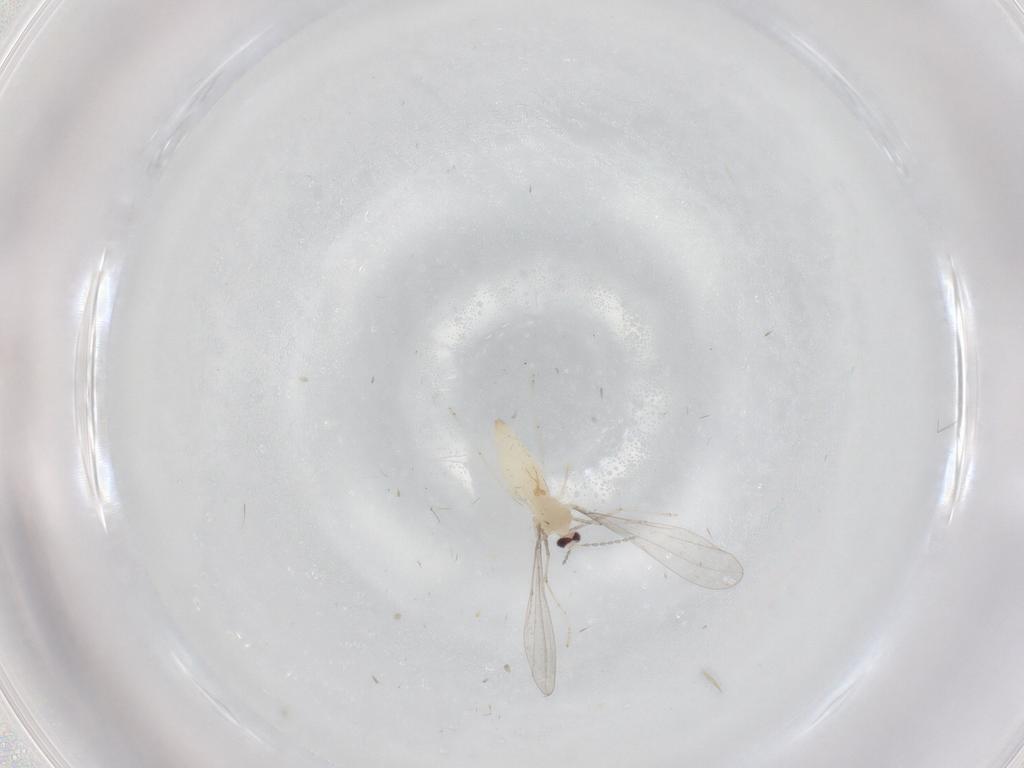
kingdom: Animalia
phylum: Arthropoda
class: Insecta
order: Diptera
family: Cecidomyiidae
